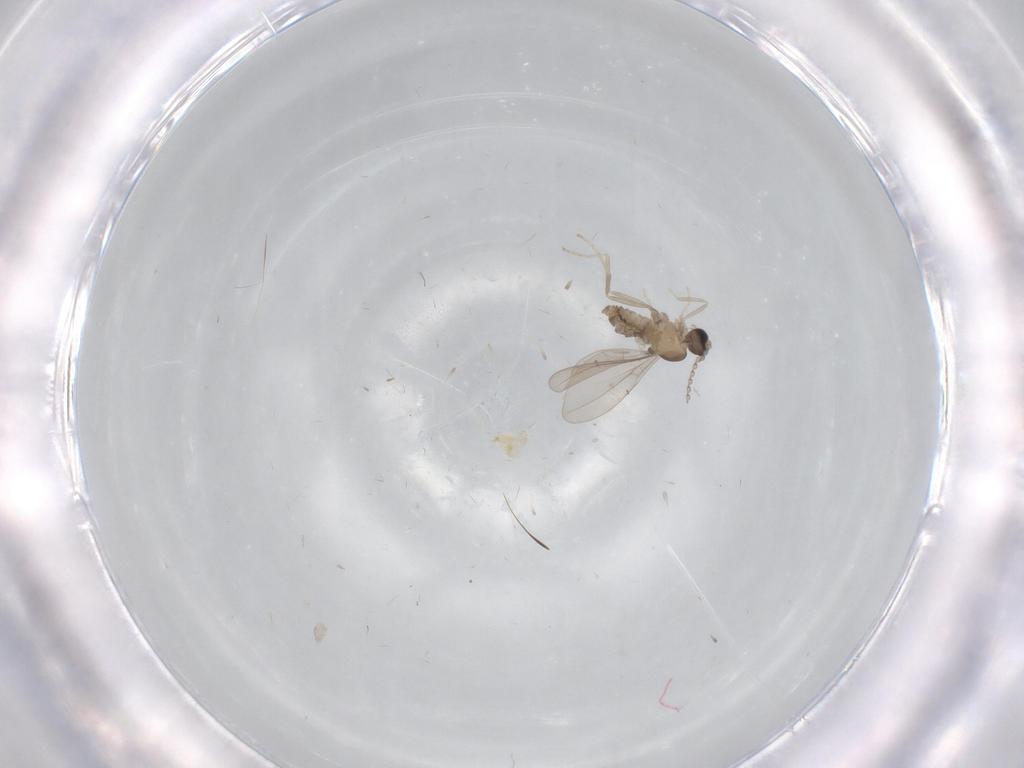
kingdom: Animalia
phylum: Arthropoda
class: Insecta
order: Diptera
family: Cecidomyiidae
